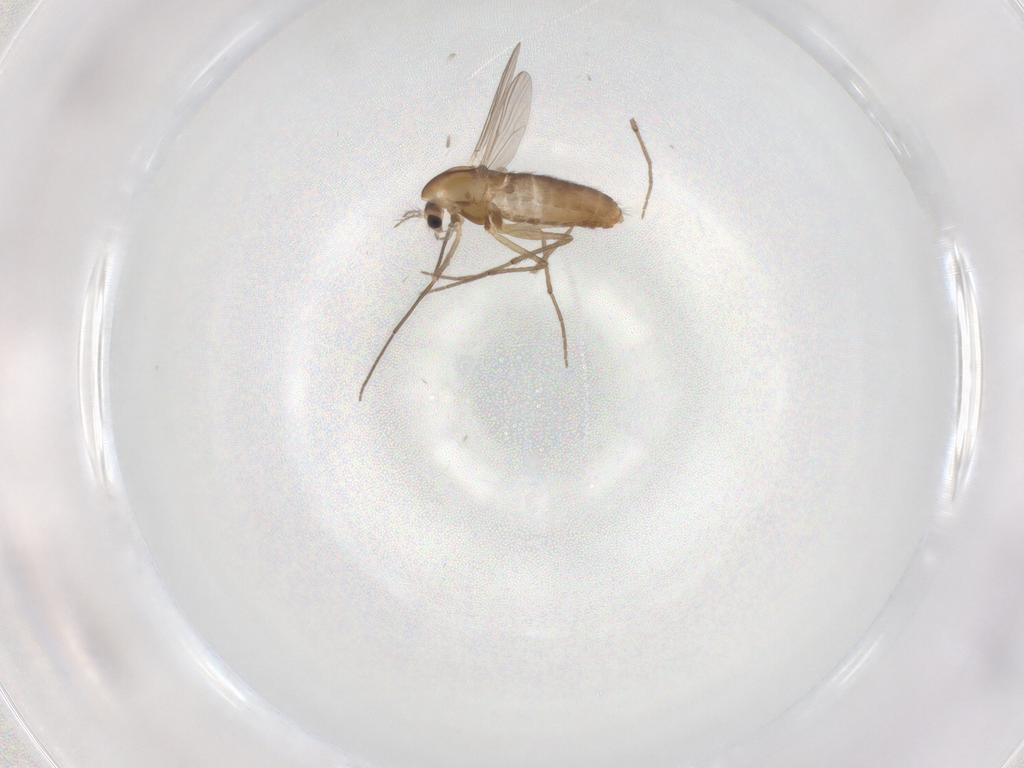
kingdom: Animalia
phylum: Arthropoda
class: Insecta
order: Diptera
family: Chironomidae
